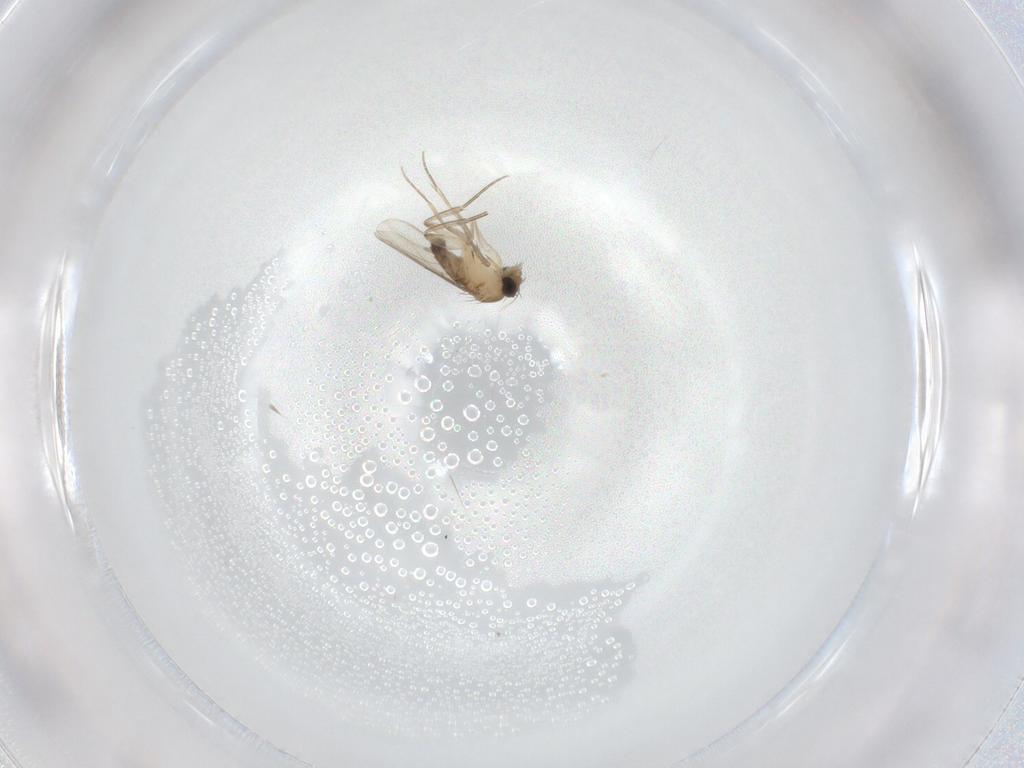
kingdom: Animalia
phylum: Arthropoda
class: Insecta
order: Diptera
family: Phoridae
